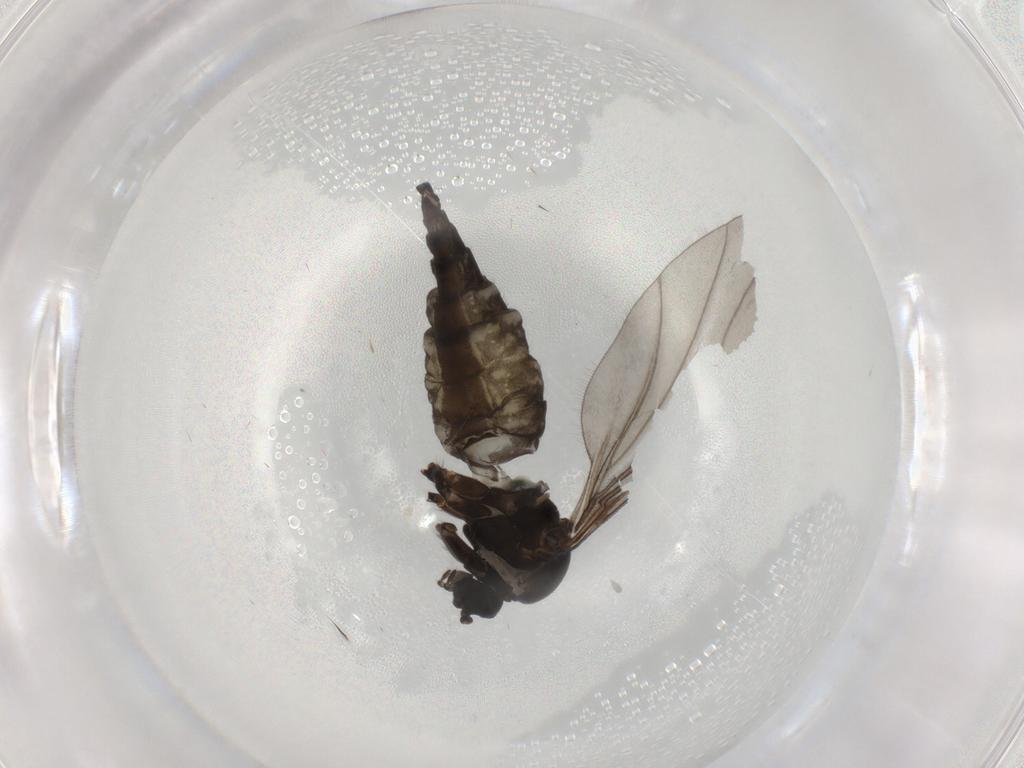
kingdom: Animalia
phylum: Arthropoda
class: Insecta
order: Diptera
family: Sciaridae
